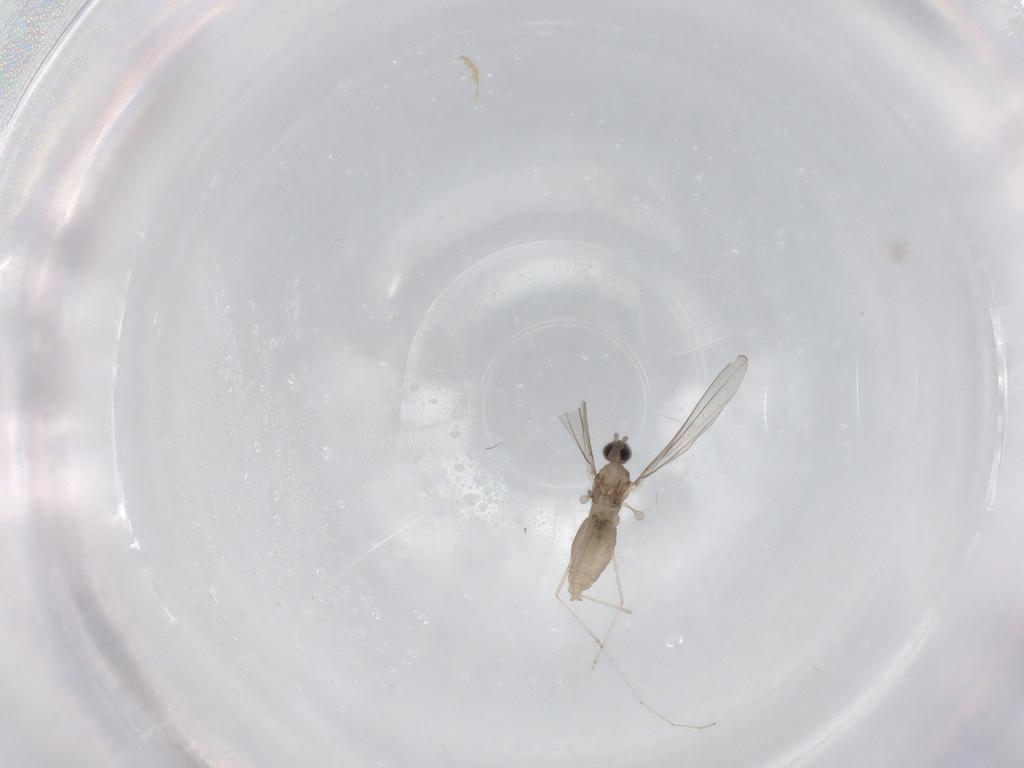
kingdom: Animalia
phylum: Arthropoda
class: Insecta
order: Diptera
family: Cecidomyiidae
